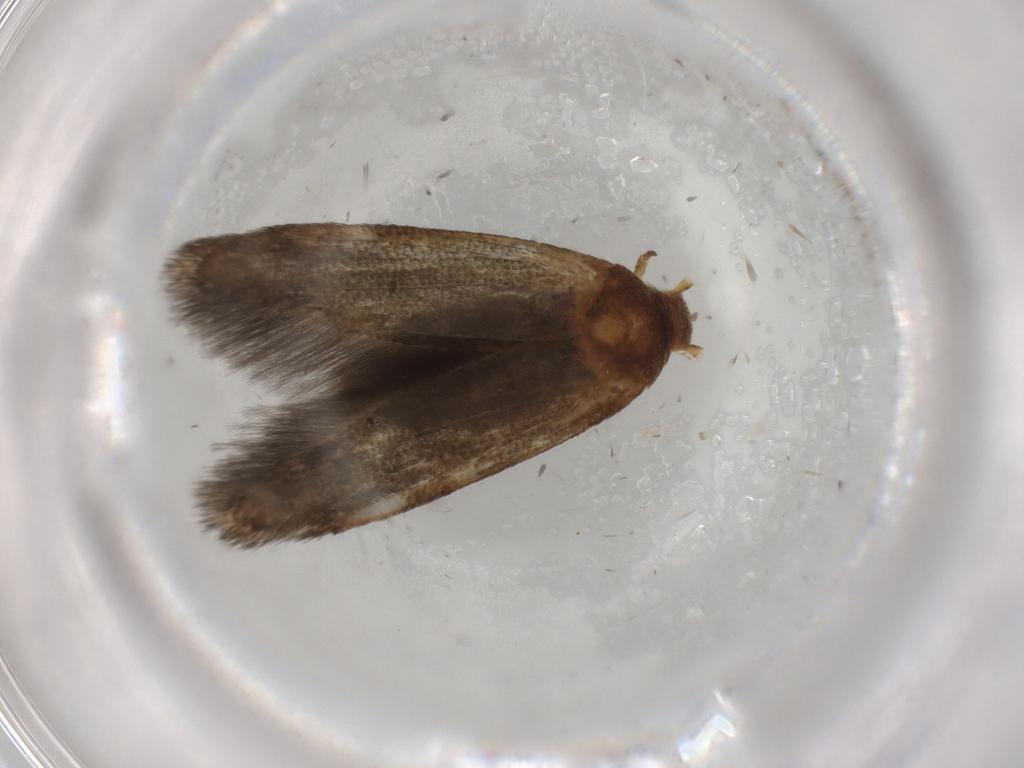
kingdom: Animalia
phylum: Arthropoda
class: Insecta
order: Lepidoptera
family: Blastobasidae
